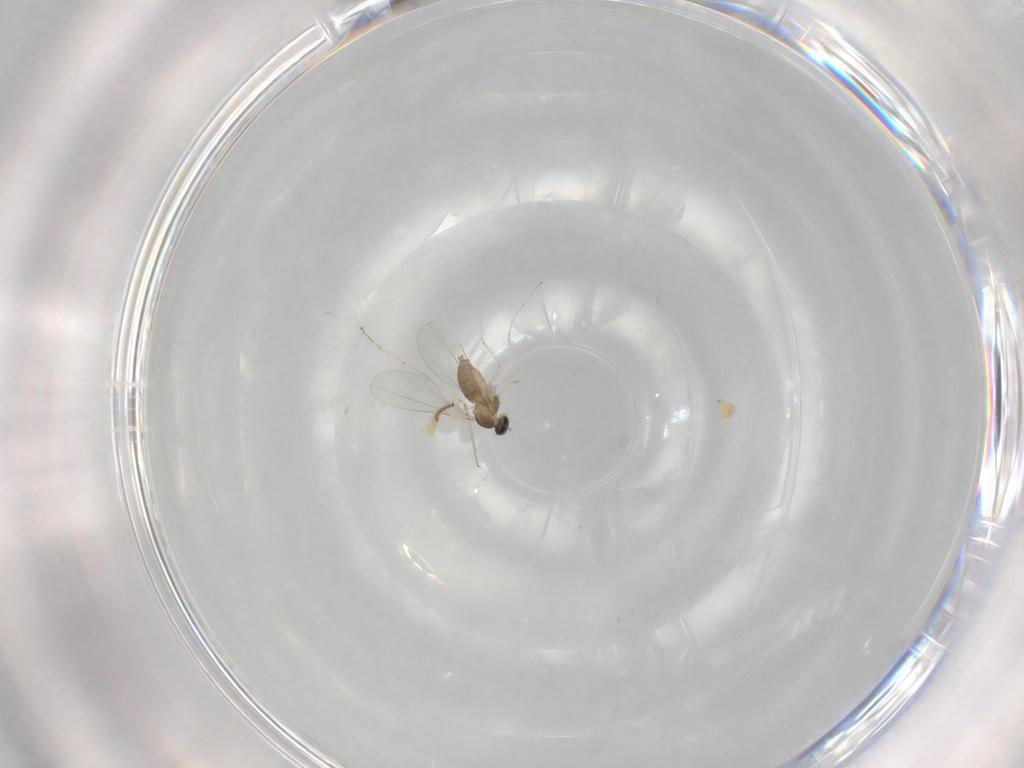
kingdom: Animalia
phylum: Arthropoda
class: Insecta
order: Diptera
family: Cecidomyiidae
